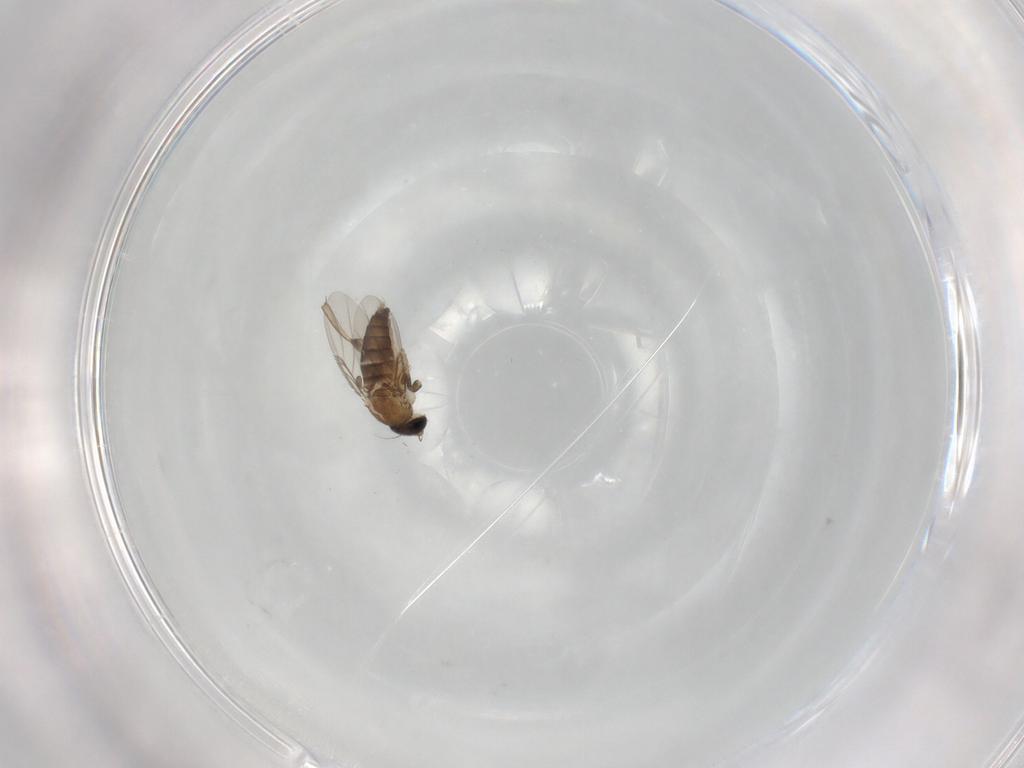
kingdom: Animalia
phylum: Arthropoda
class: Insecta
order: Diptera
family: Phoridae
